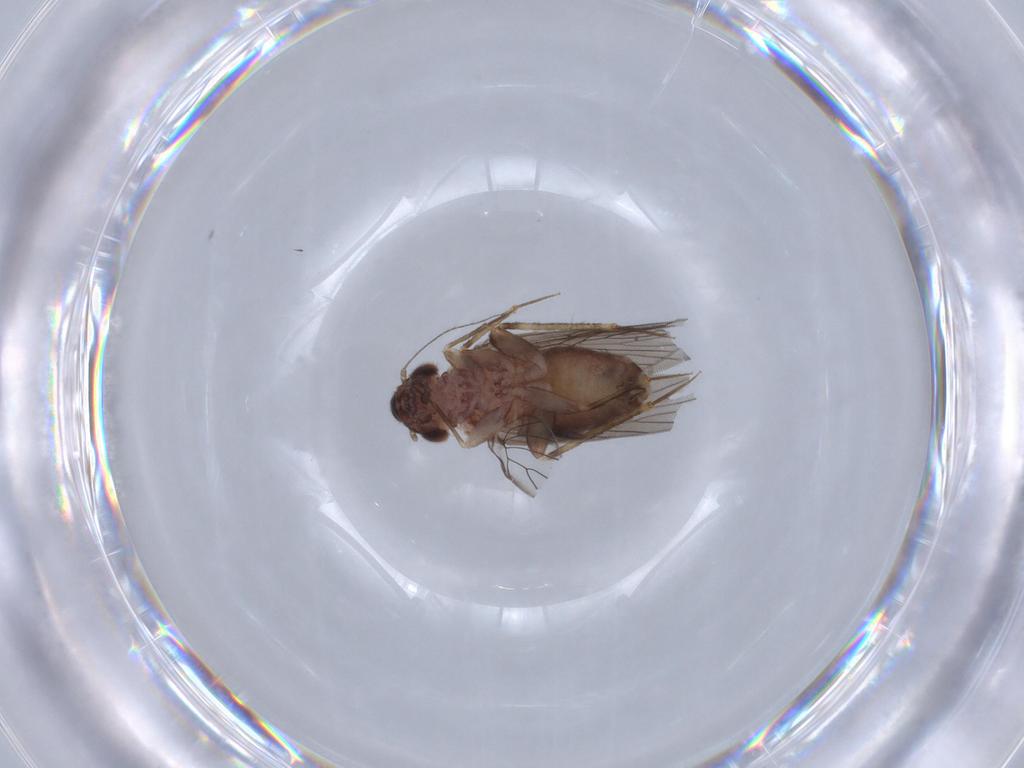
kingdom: Animalia
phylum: Arthropoda
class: Insecta
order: Psocodea
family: Lepidopsocidae
